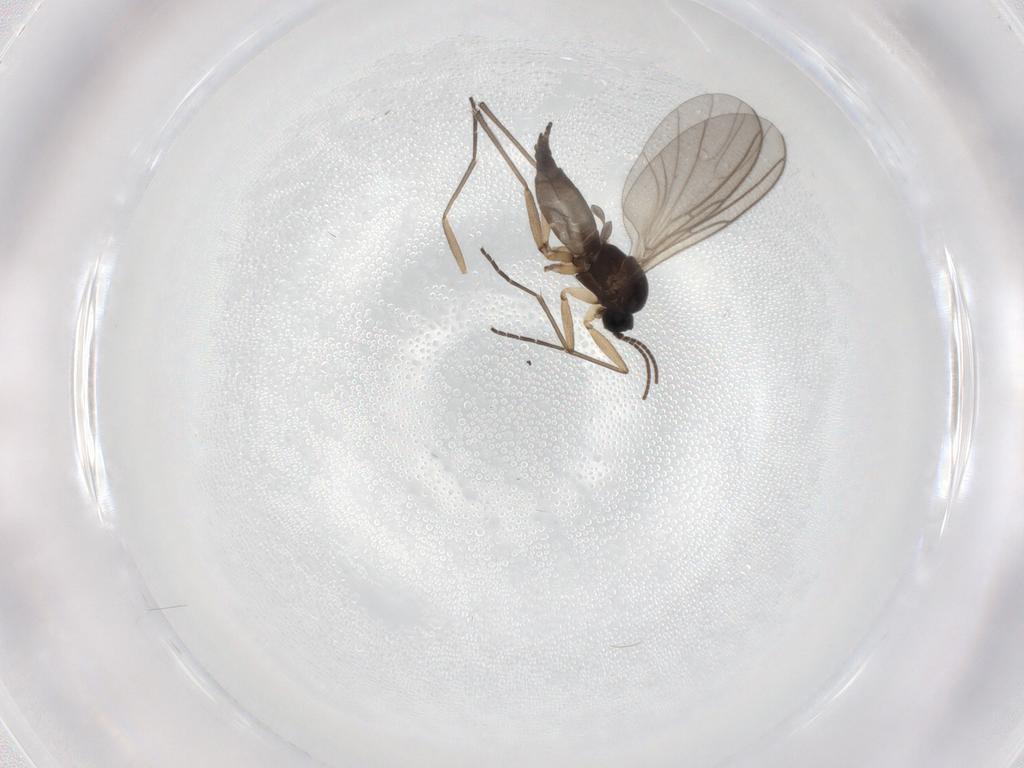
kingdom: Animalia
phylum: Arthropoda
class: Insecta
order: Diptera
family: Sciaridae
